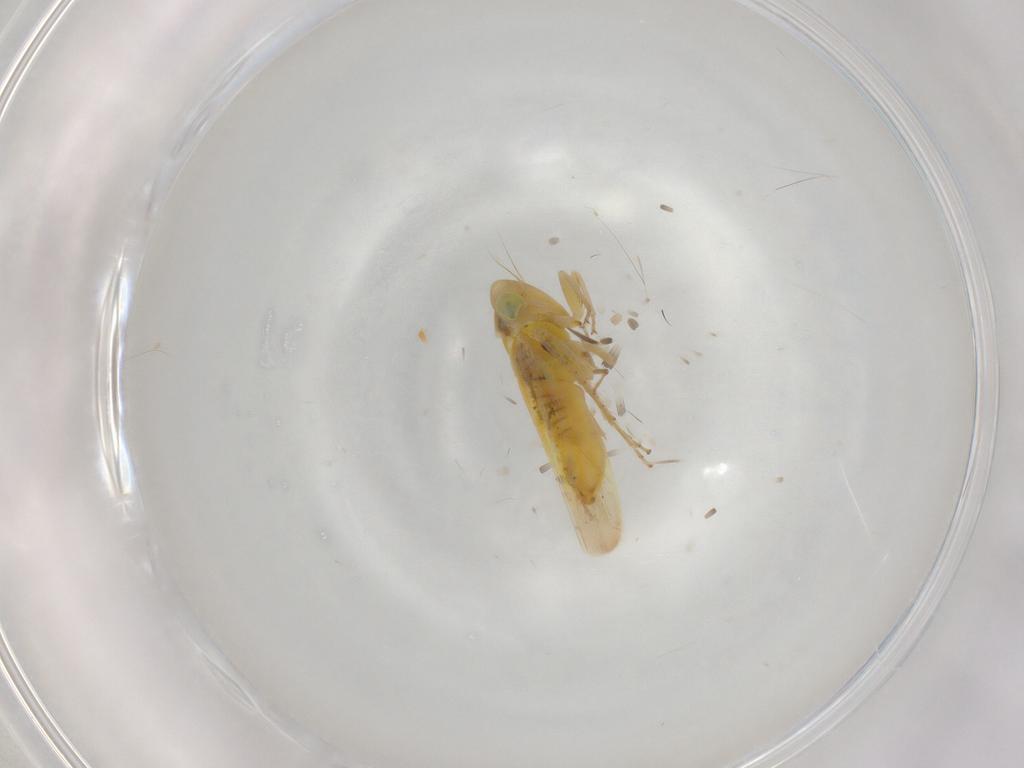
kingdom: Animalia
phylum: Arthropoda
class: Insecta
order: Hemiptera
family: Cicadellidae
